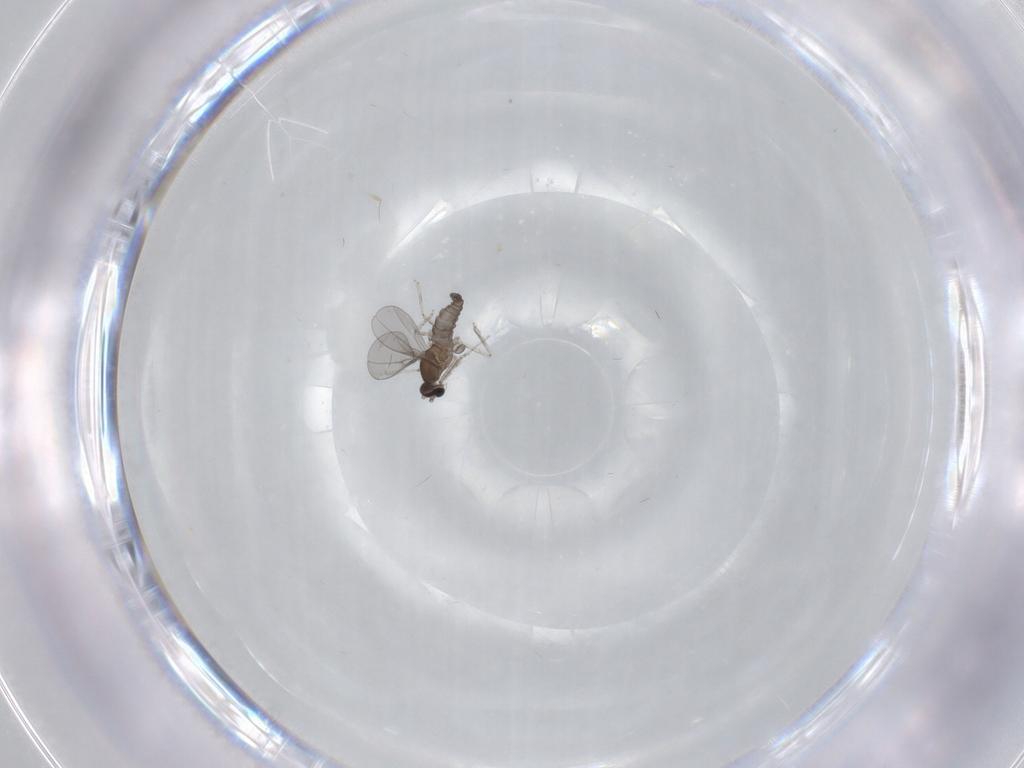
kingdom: Animalia
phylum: Arthropoda
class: Insecta
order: Diptera
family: Cecidomyiidae
